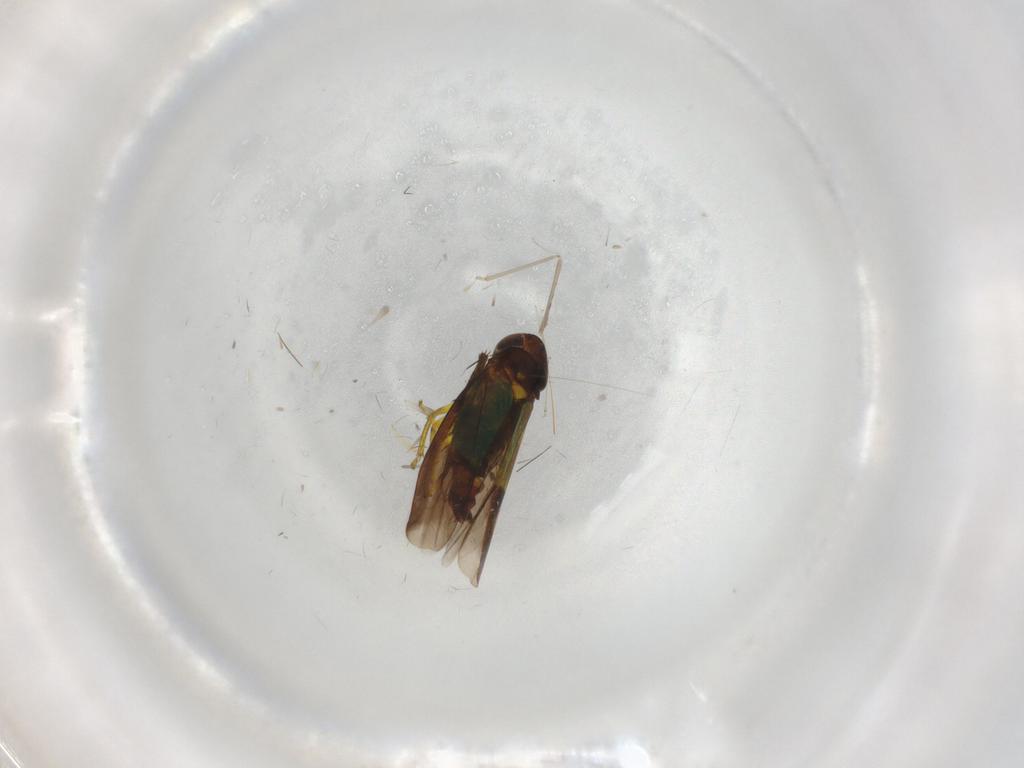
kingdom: Animalia
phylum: Arthropoda
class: Insecta
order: Hemiptera
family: Cicadellidae
